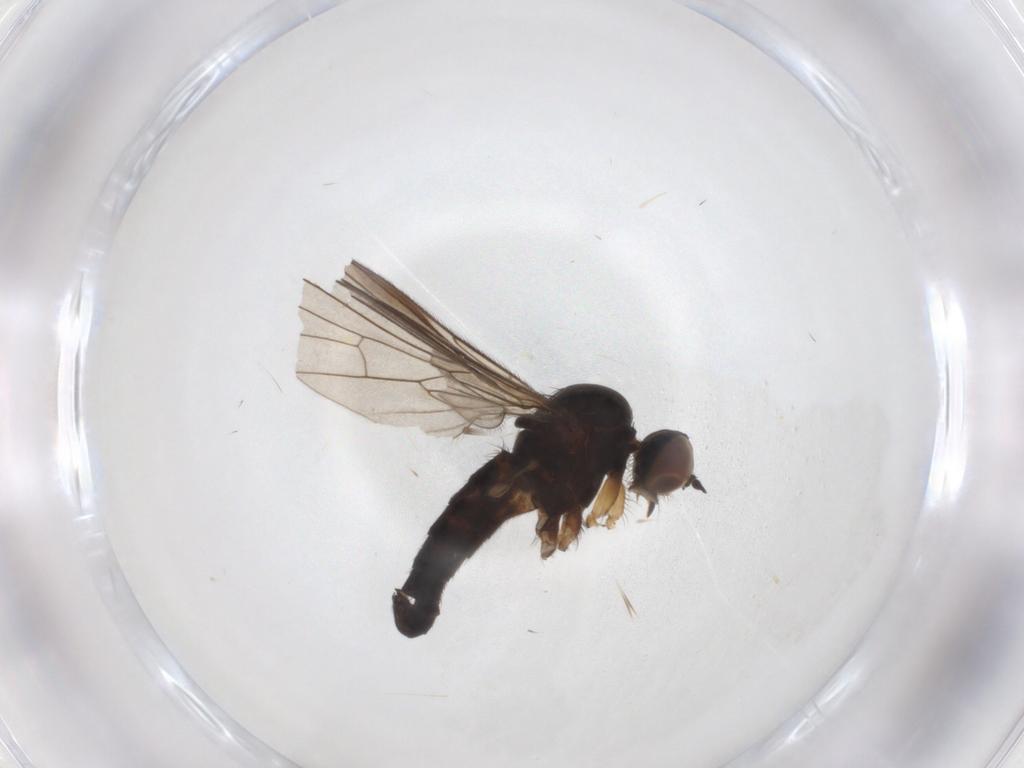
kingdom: Animalia
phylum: Arthropoda
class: Insecta
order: Diptera
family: Empididae
